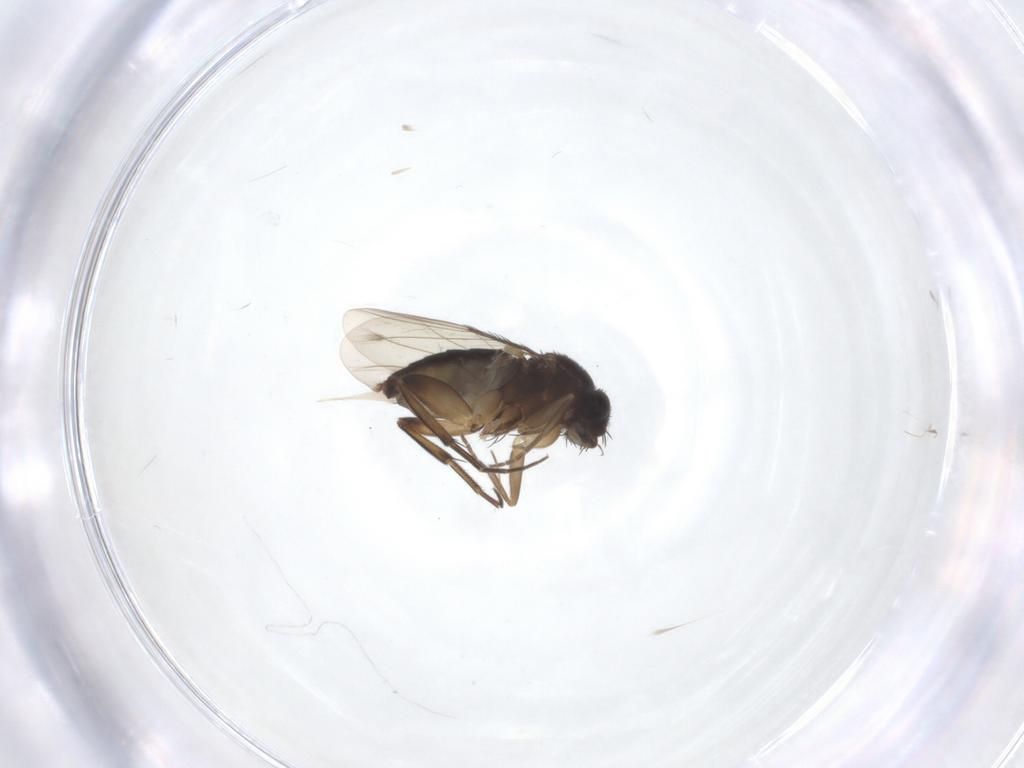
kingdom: Animalia
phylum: Arthropoda
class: Insecta
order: Diptera
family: Phoridae
